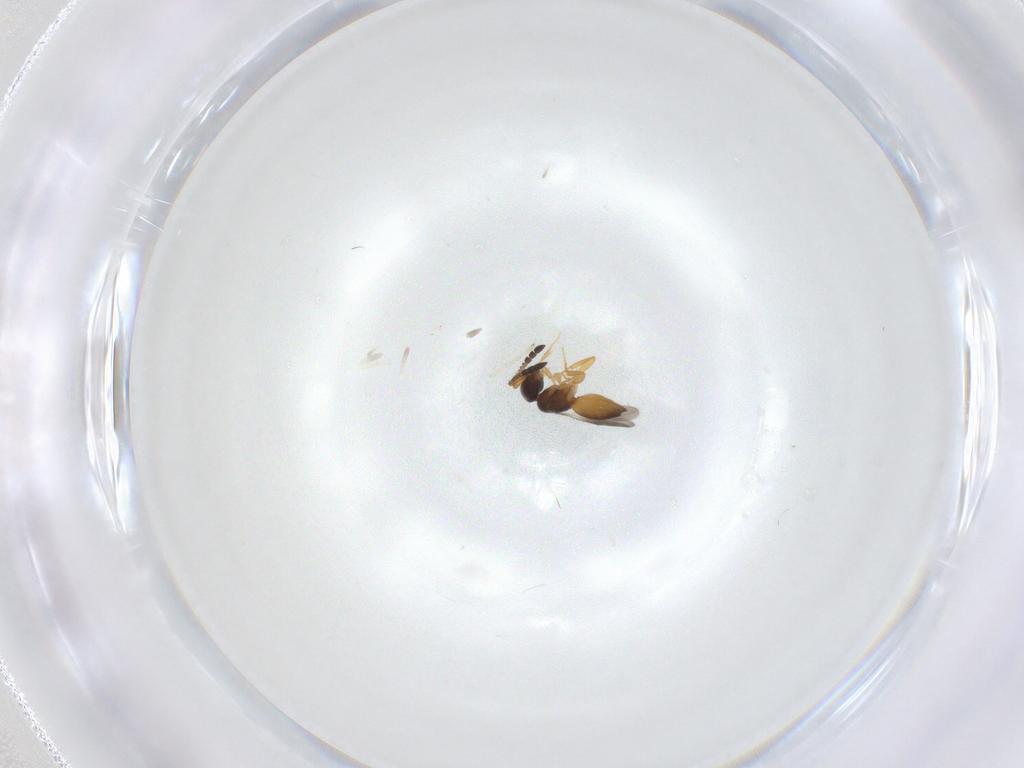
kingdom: Animalia
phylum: Arthropoda
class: Insecta
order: Hymenoptera
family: Ceraphronidae
